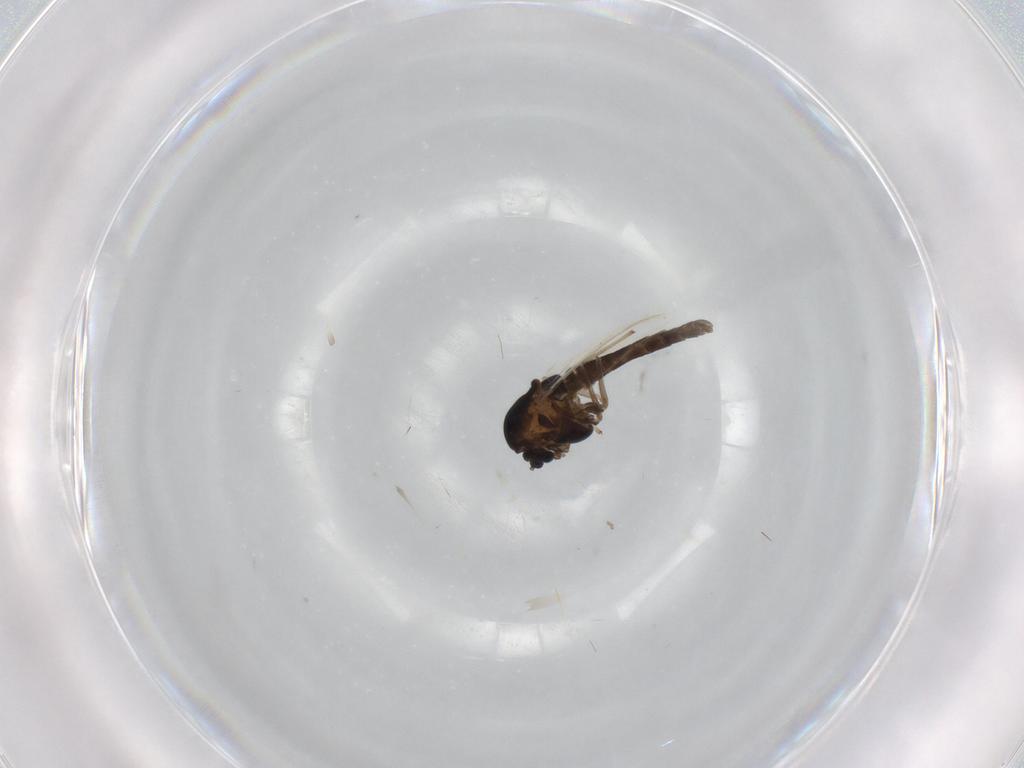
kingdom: Animalia
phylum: Arthropoda
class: Insecta
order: Diptera
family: Chironomidae
